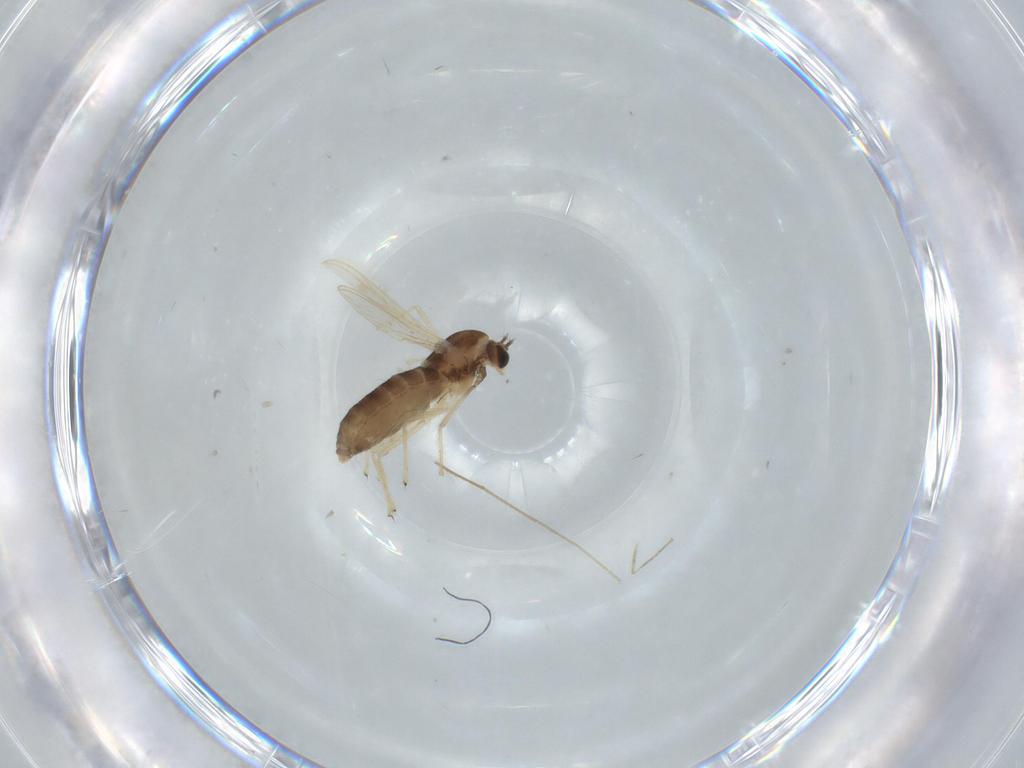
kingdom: Animalia
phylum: Arthropoda
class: Insecta
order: Diptera
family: Chironomidae
